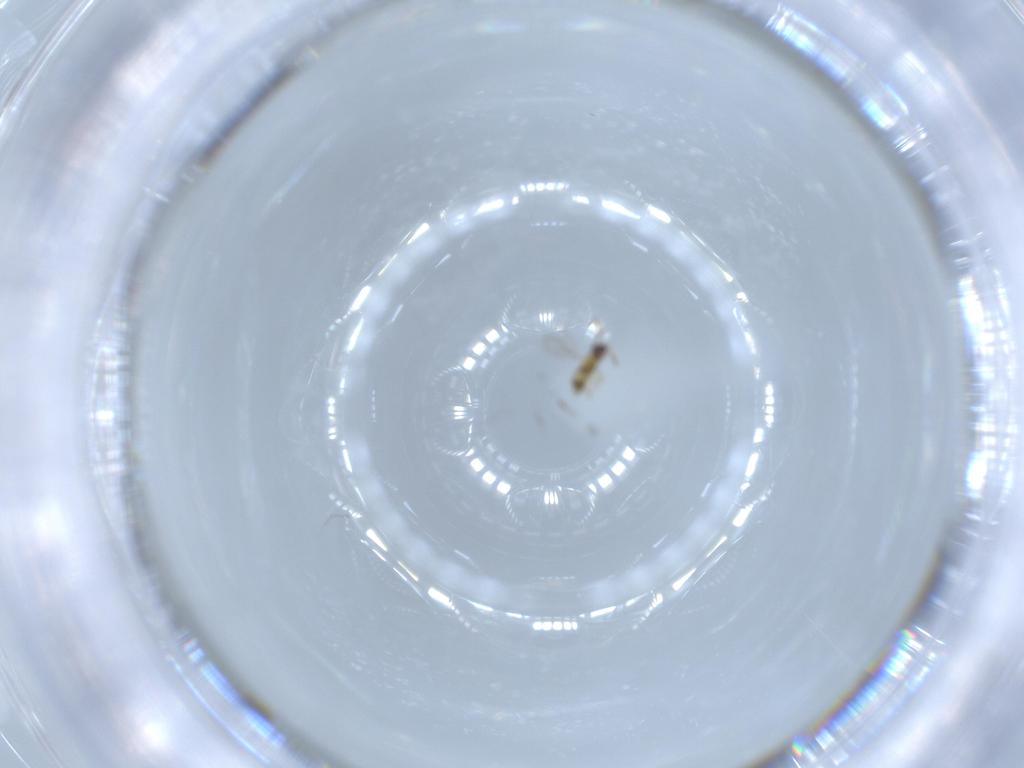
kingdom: Animalia
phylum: Arthropoda
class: Insecta
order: Hymenoptera
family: Aphelinidae
